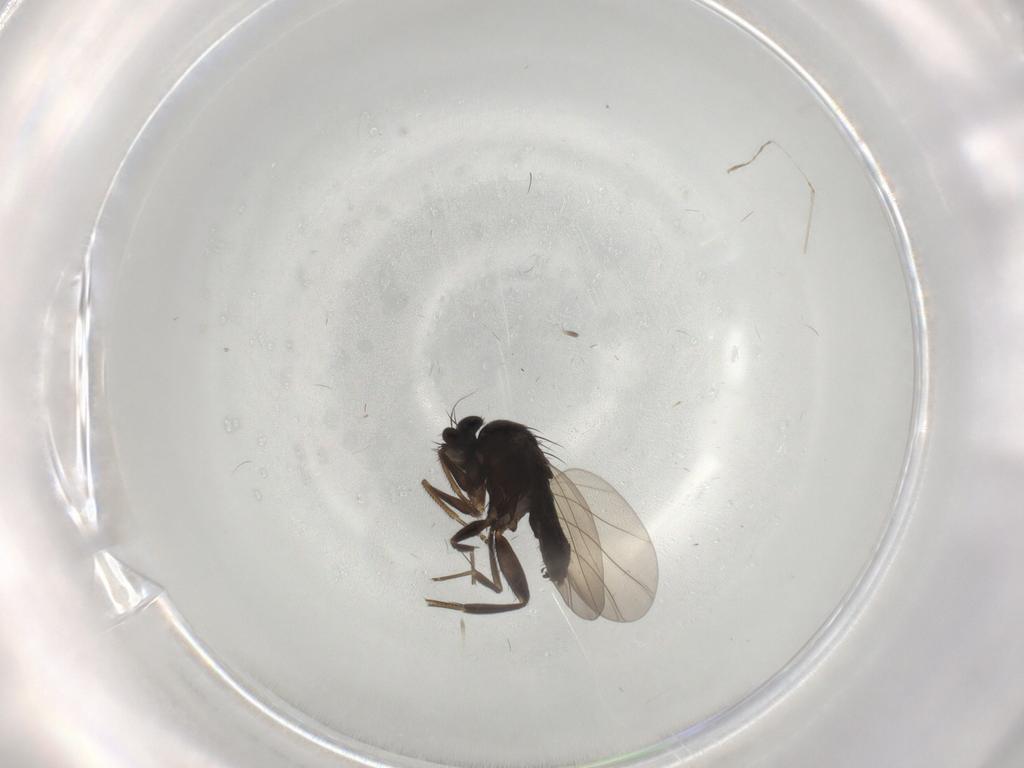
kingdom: Animalia
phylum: Arthropoda
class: Insecta
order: Diptera
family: Phoridae
